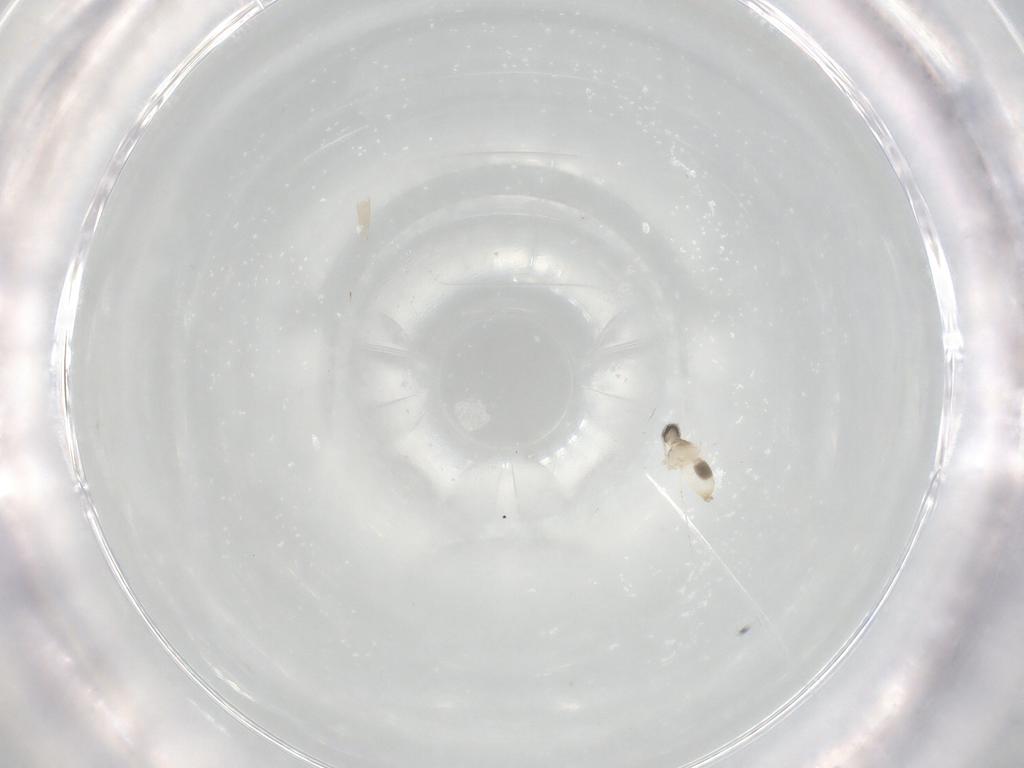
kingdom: Animalia
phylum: Arthropoda
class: Insecta
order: Diptera
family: Cecidomyiidae
